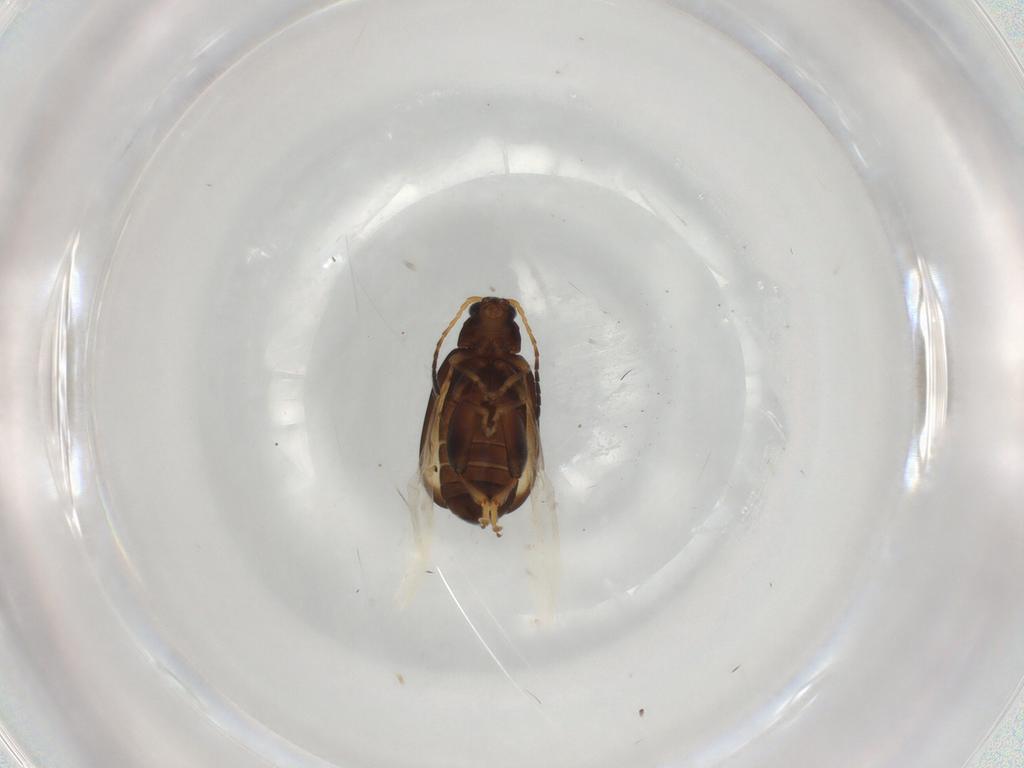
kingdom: Animalia
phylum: Arthropoda
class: Insecta
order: Coleoptera
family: Chrysomelidae
